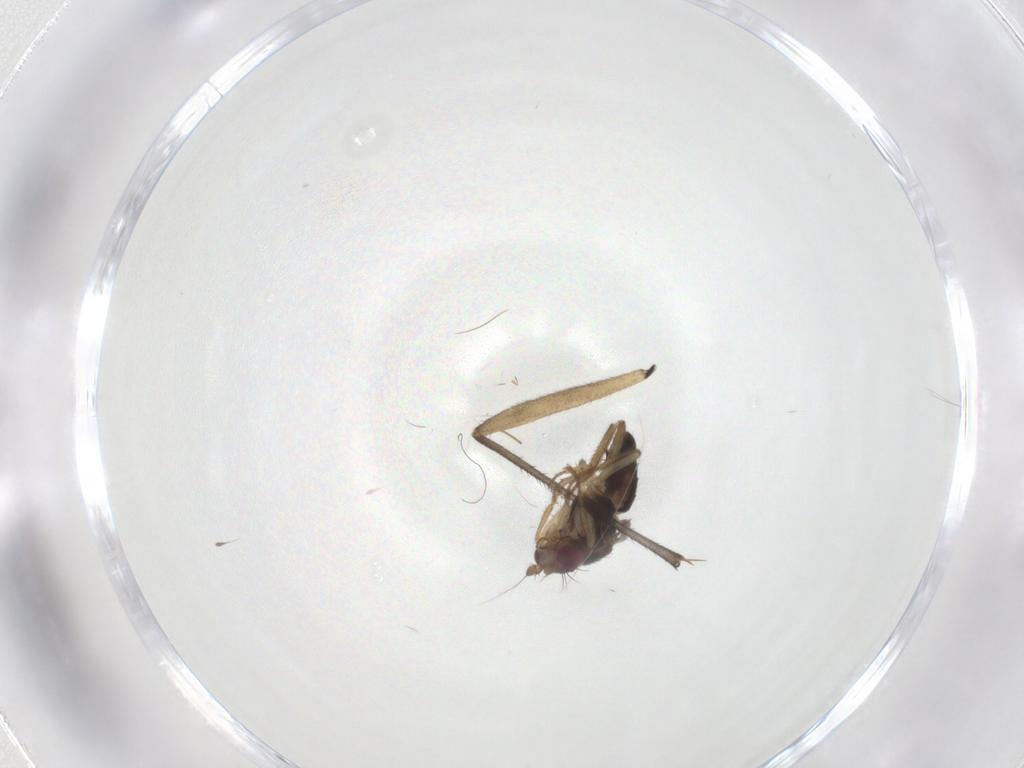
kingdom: Animalia
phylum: Arthropoda
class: Insecta
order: Diptera
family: Sphaeroceridae
